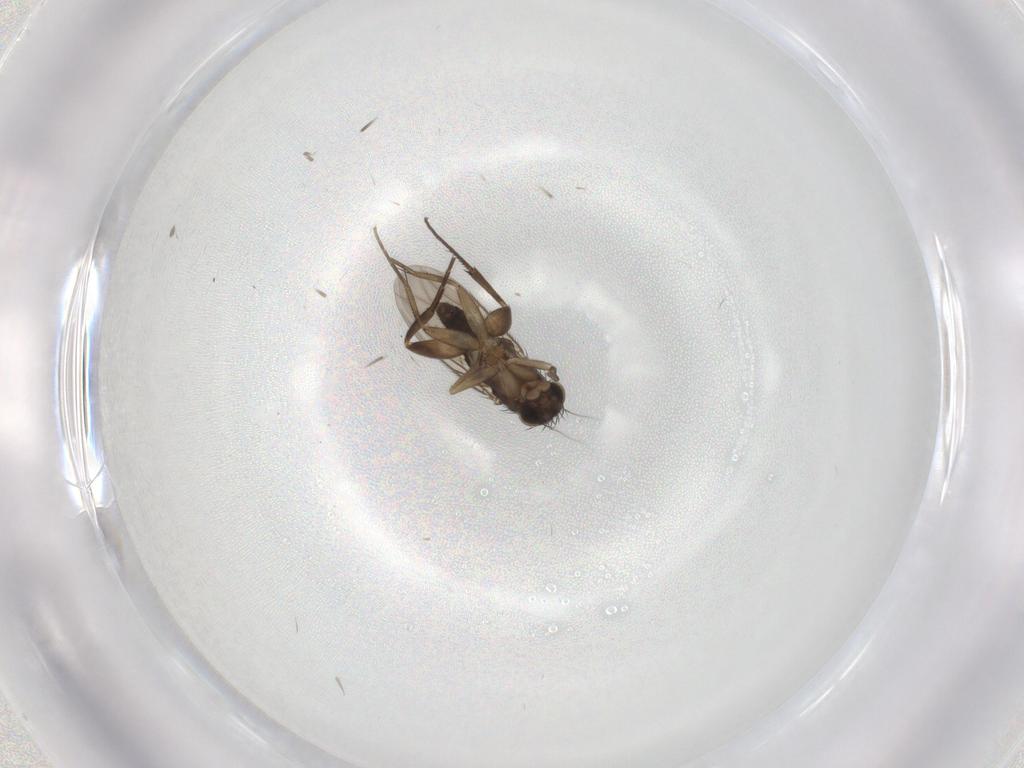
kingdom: Animalia
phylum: Arthropoda
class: Insecta
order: Diptera
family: Phoridae
